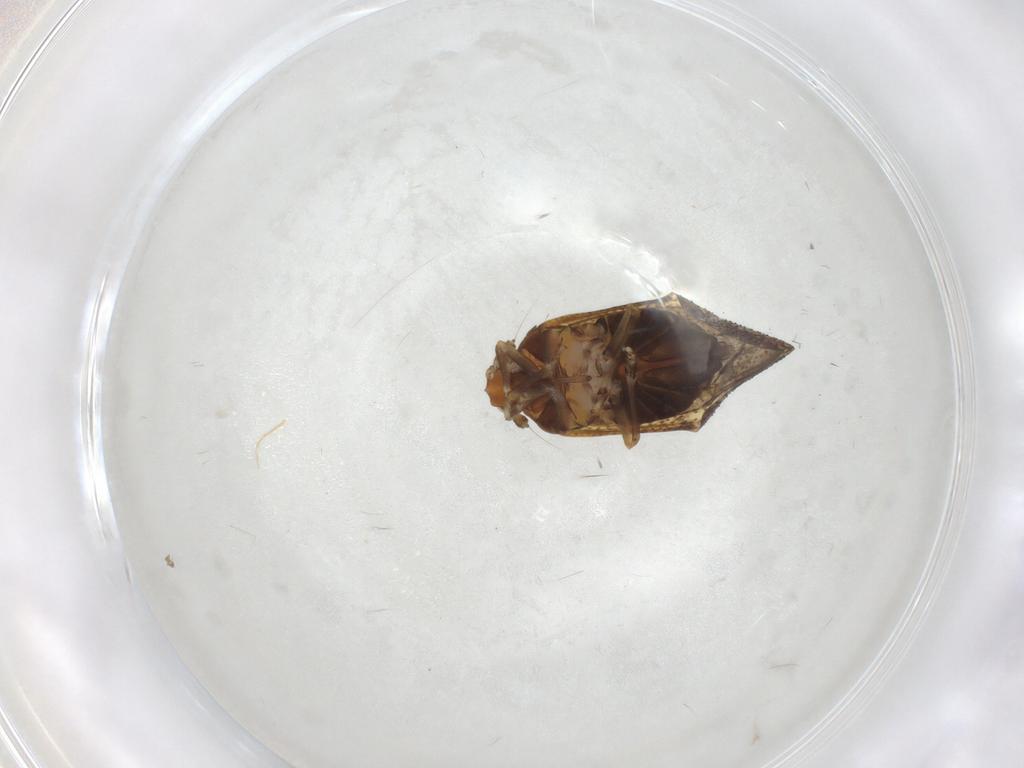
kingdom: Animalia
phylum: Arthropoda
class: Insecta
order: Hemiptera
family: Delphacidae
